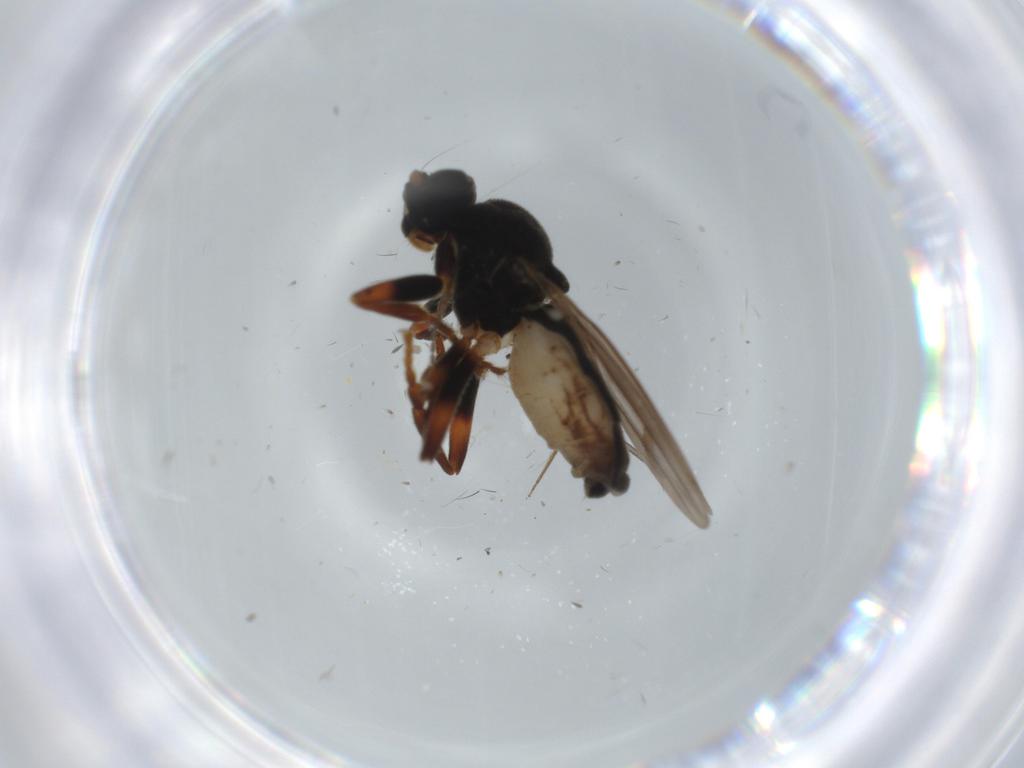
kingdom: Animalia
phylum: Arthropoda
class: Insecta
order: Diptera
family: Sphaeroceridae
